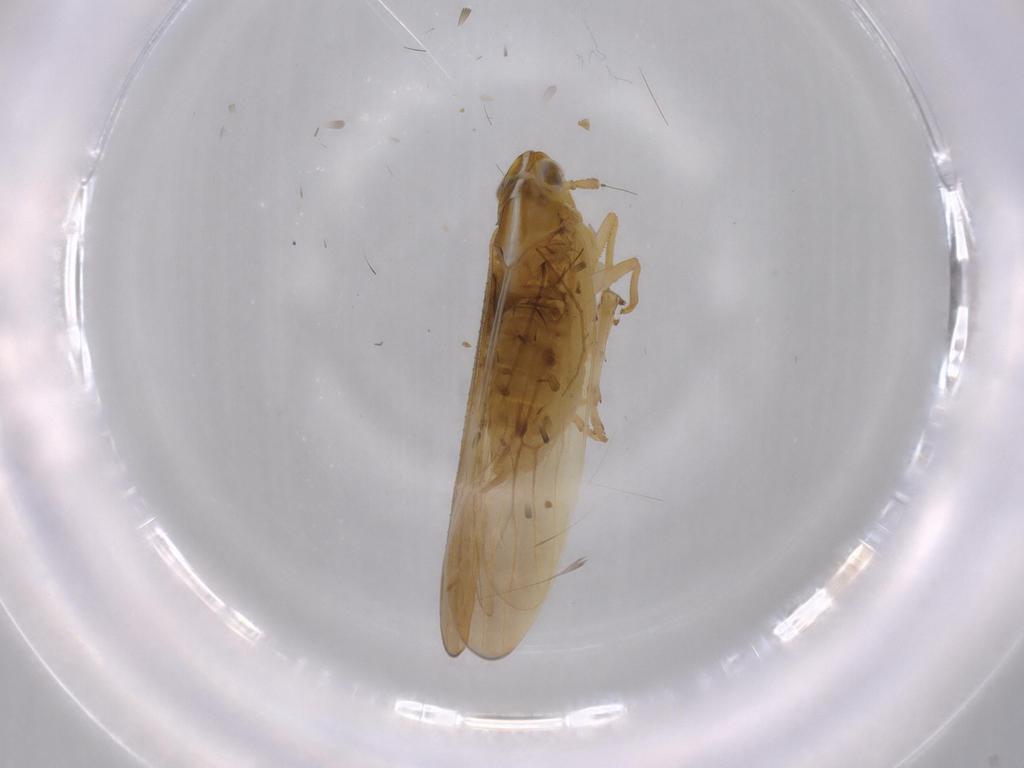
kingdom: Animalia
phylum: Arthropoda
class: Insecta
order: Hemiptera
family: Delphacidae
